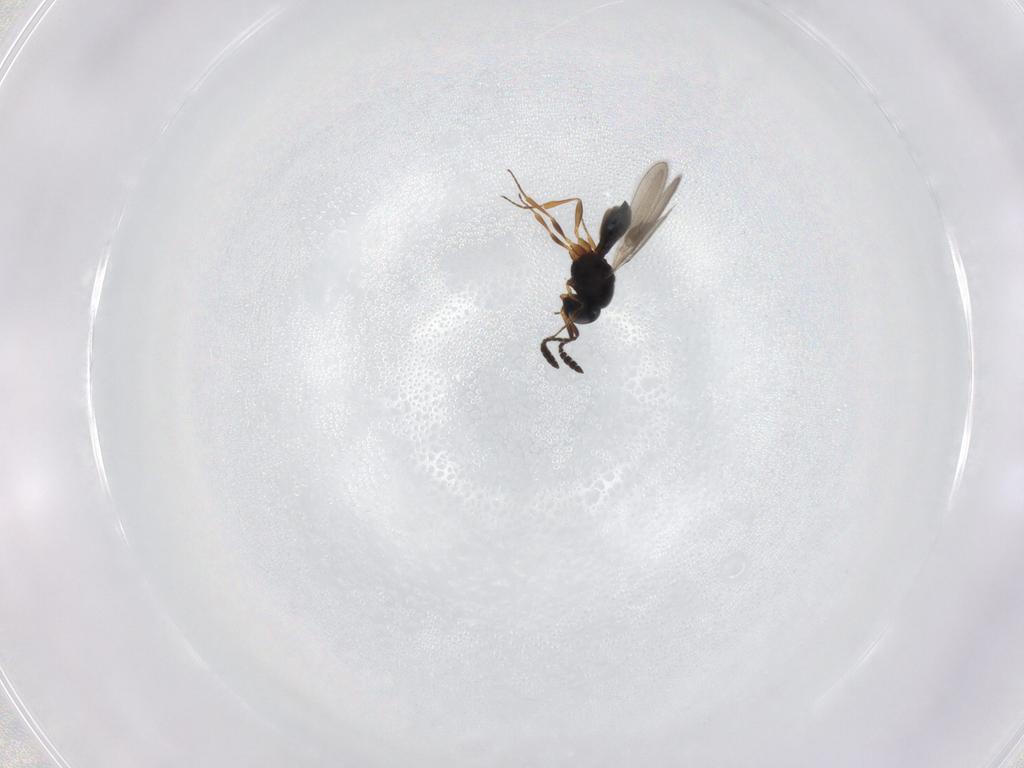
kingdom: Animalia
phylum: Arthropoda
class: Insecta
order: Hymenoptera
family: Scelionidae
